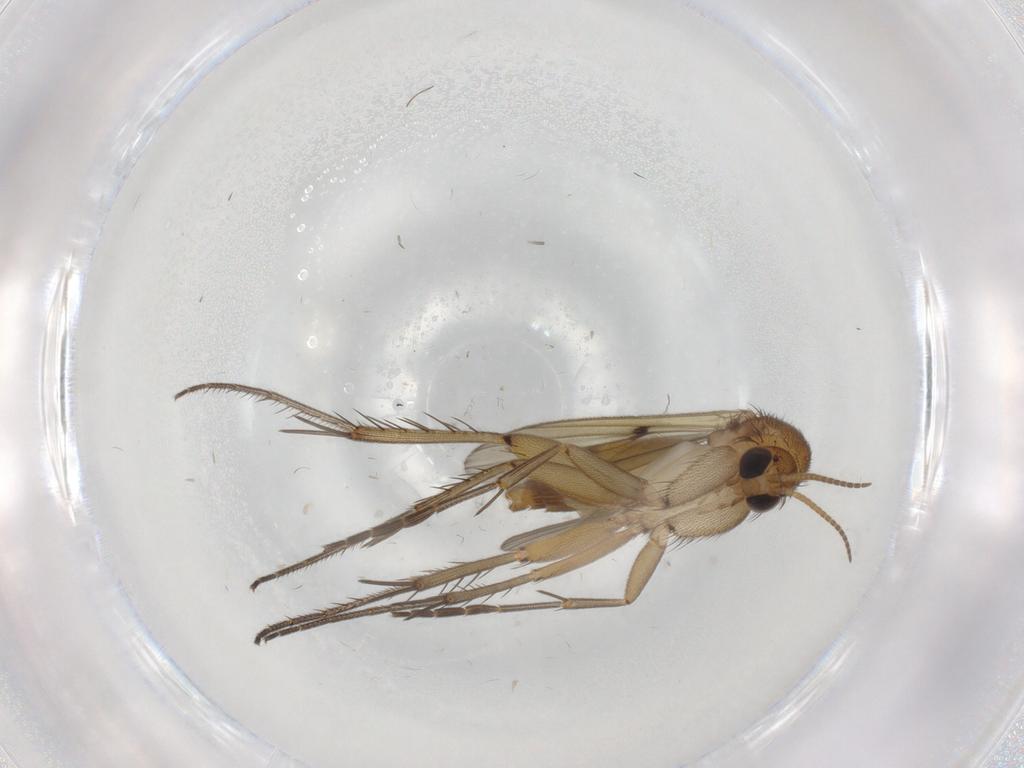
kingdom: Animalia
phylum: Arthropoda
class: Insecta
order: Diptera
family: Mycetophilidae
